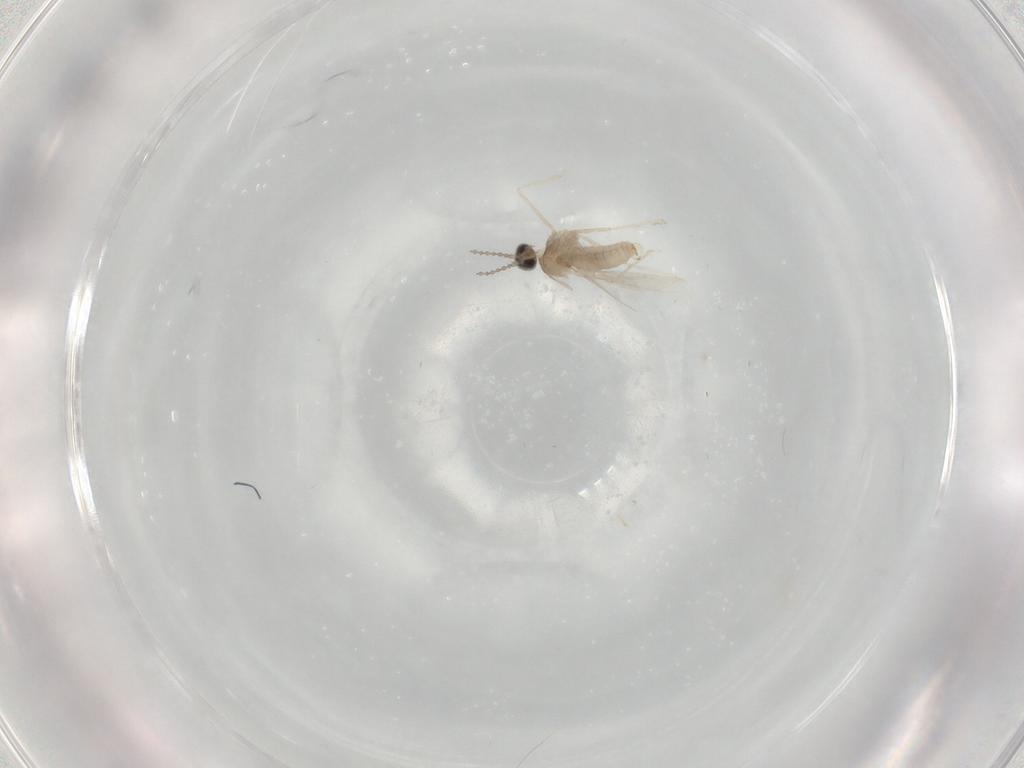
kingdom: Animalia
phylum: Arthropoda
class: Insecta
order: Diptera
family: Cecidomyiidae
